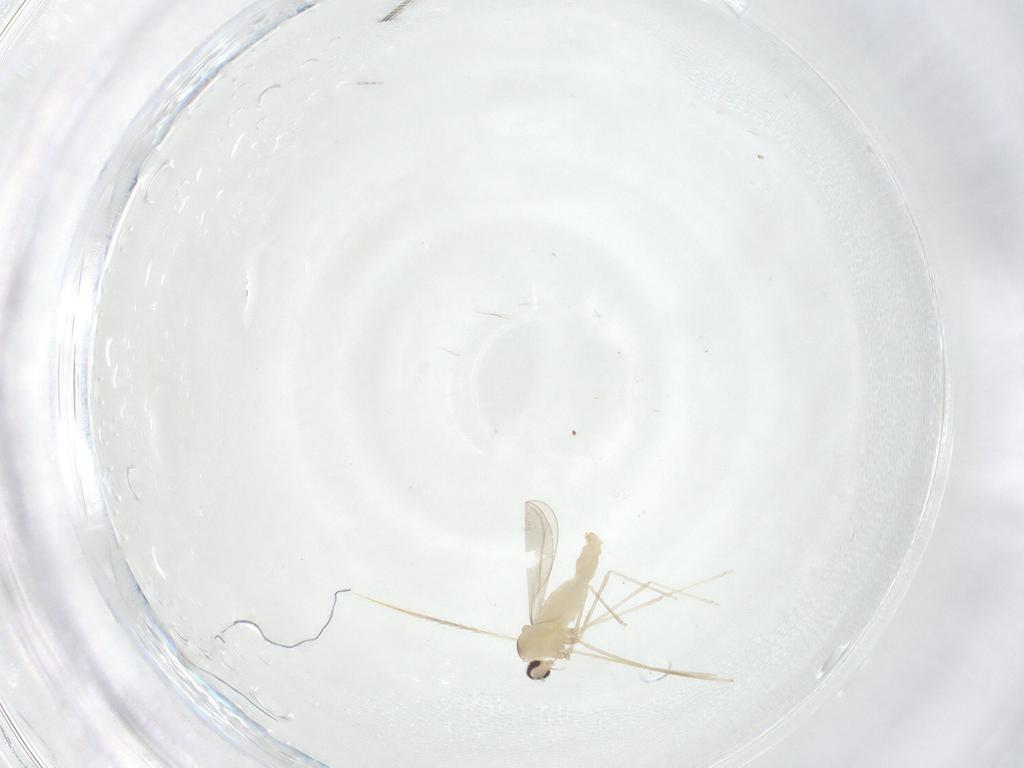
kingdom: Animalia
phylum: Arthropoda
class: Insecta
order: Diptera
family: Cecidomyiidae
